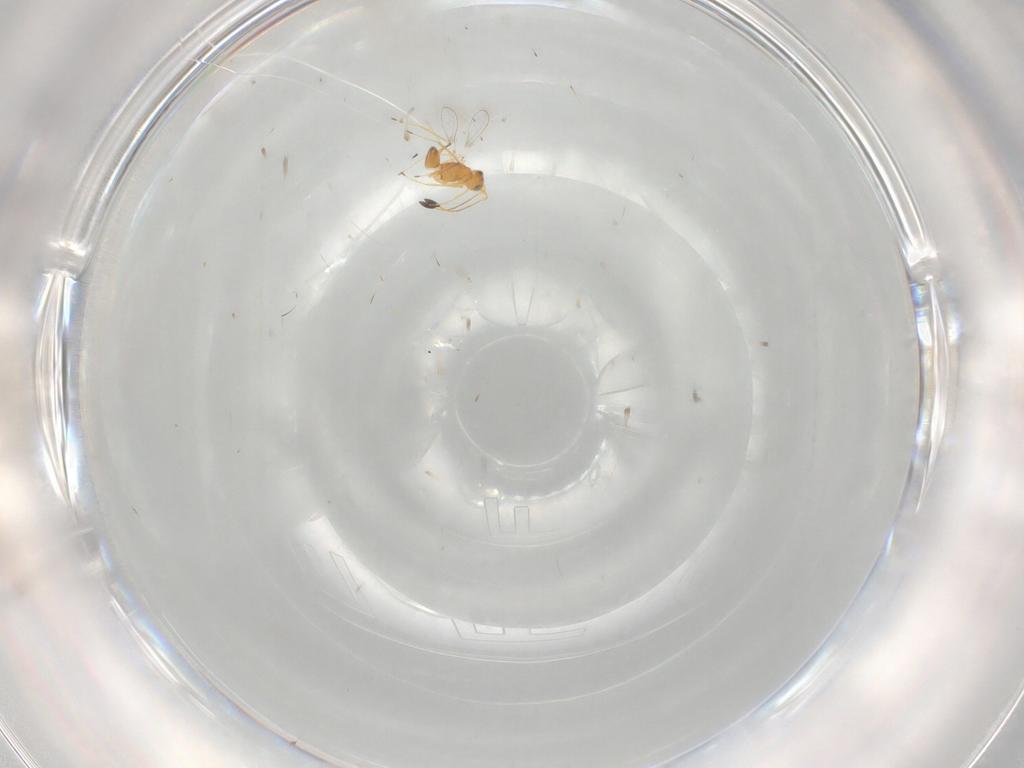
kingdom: Animalia
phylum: Arthropoda
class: Insecta
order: Hymenoptera
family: Mymaridae
